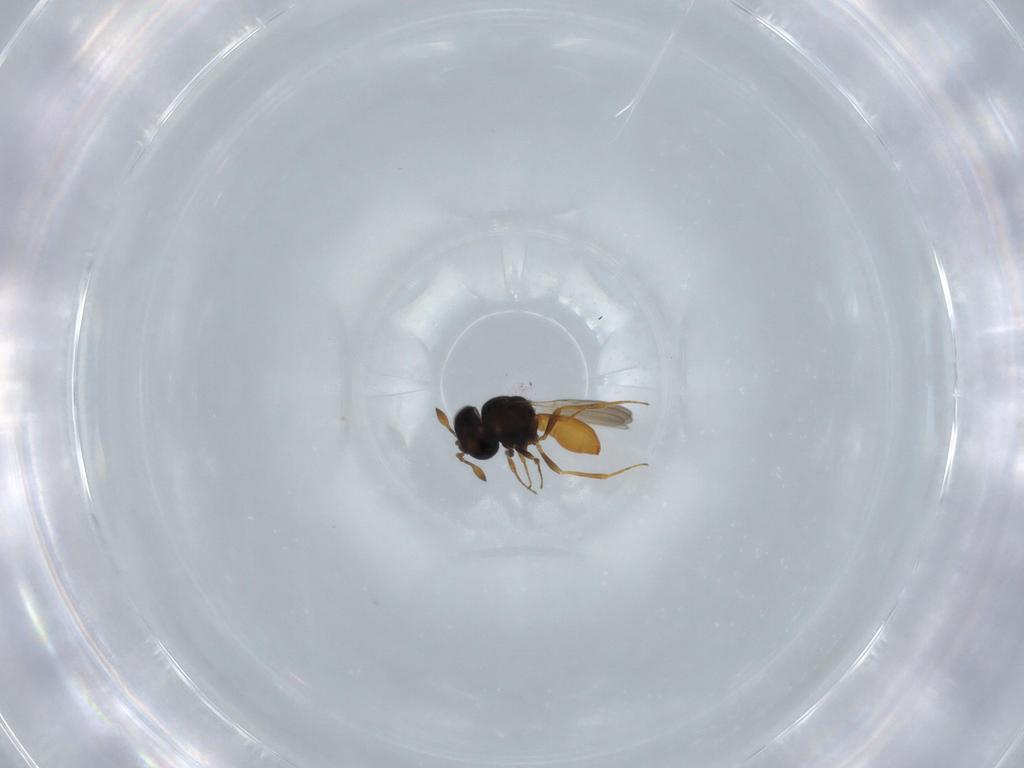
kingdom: Animalia
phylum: Arthropoda
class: Insecta
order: Hymenoptera
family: Scelionidae
